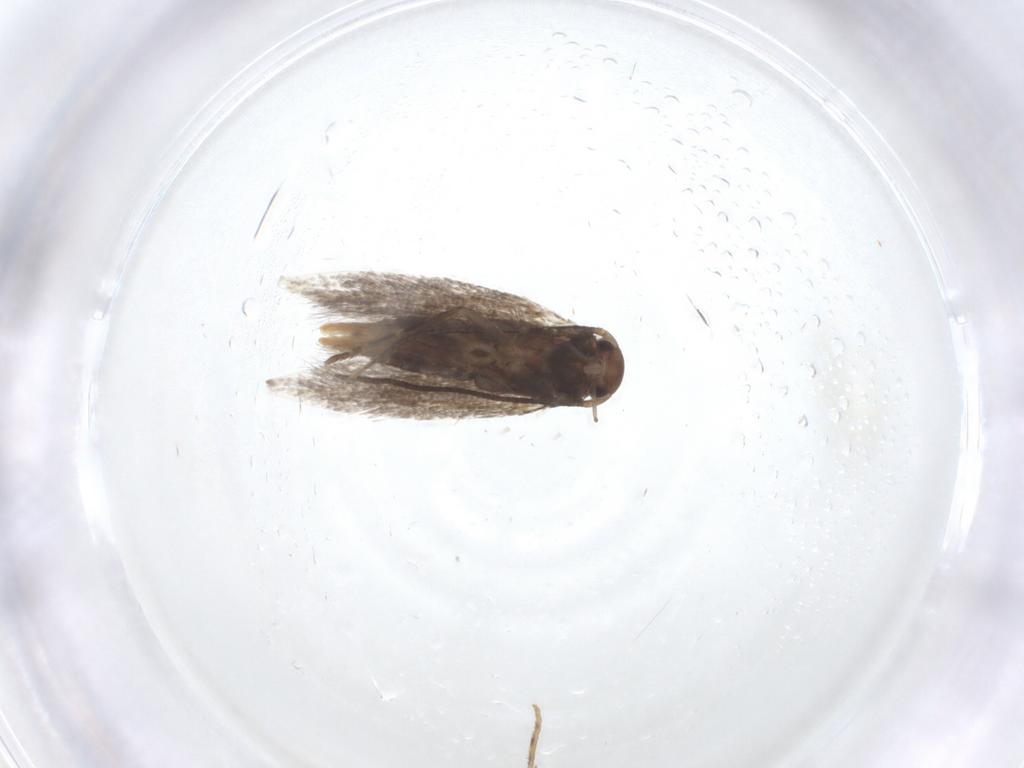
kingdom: Animalia
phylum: Arthropoda
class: Insecta
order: Lepidoptera
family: Elachistidae
